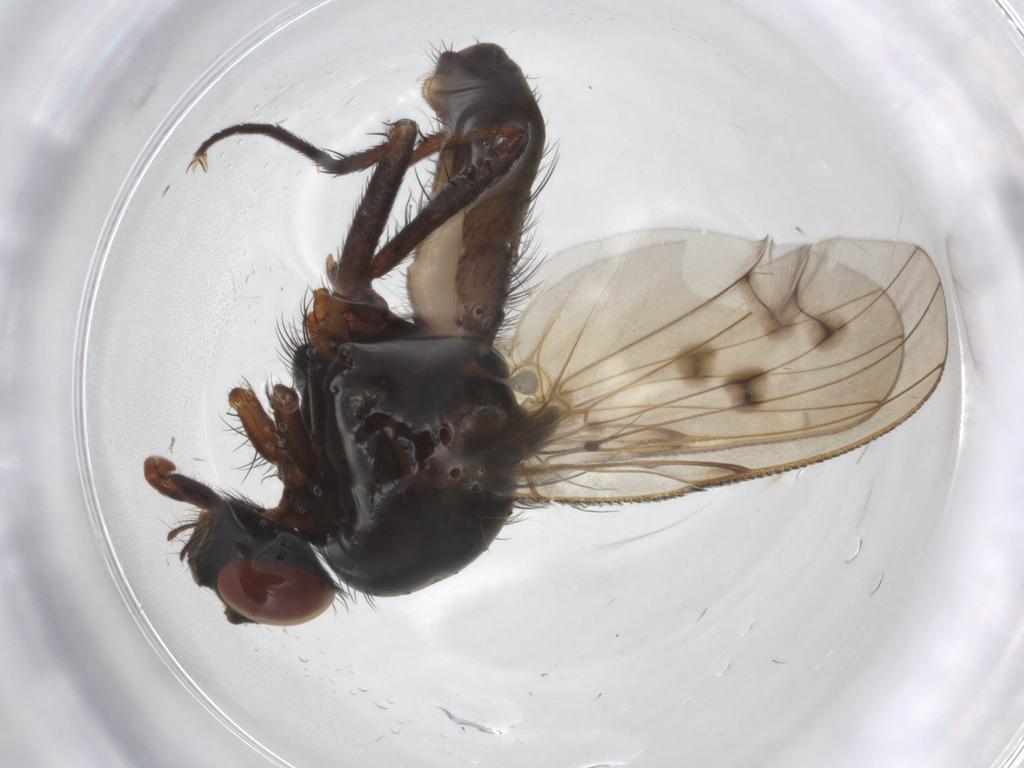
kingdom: Animalia
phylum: Arthropoda
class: Insecta
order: Diptera
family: Anthomyiidae
